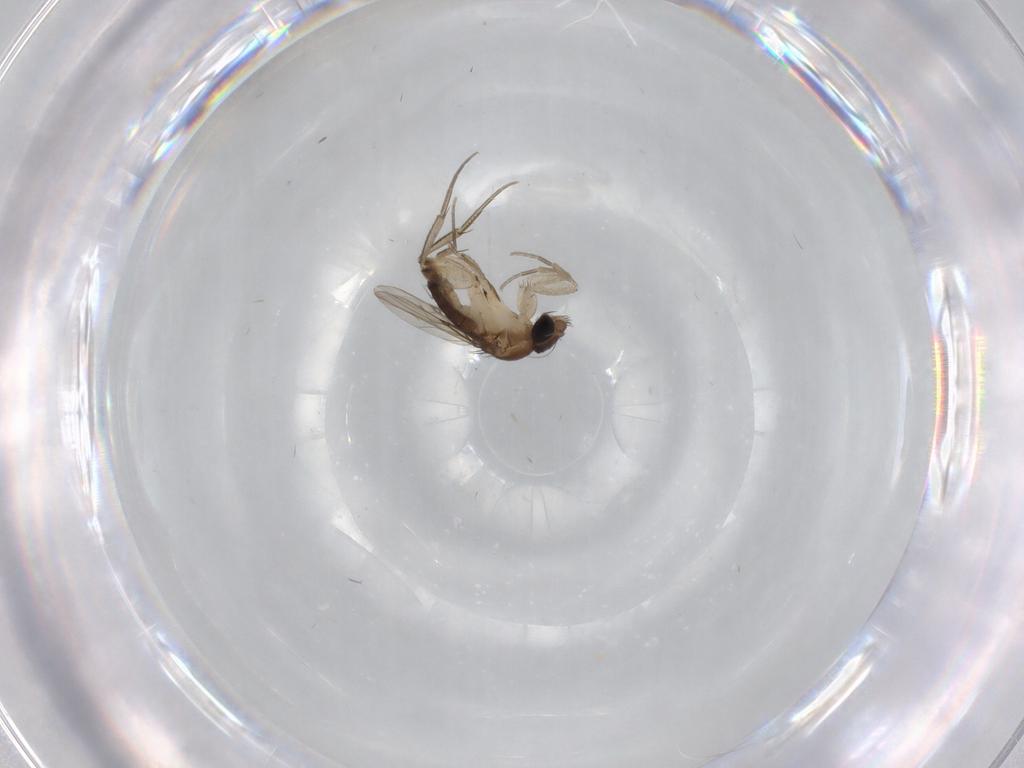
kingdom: Animalia
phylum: Arthropoda
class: Insecta
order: Diptera
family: Phoridae
